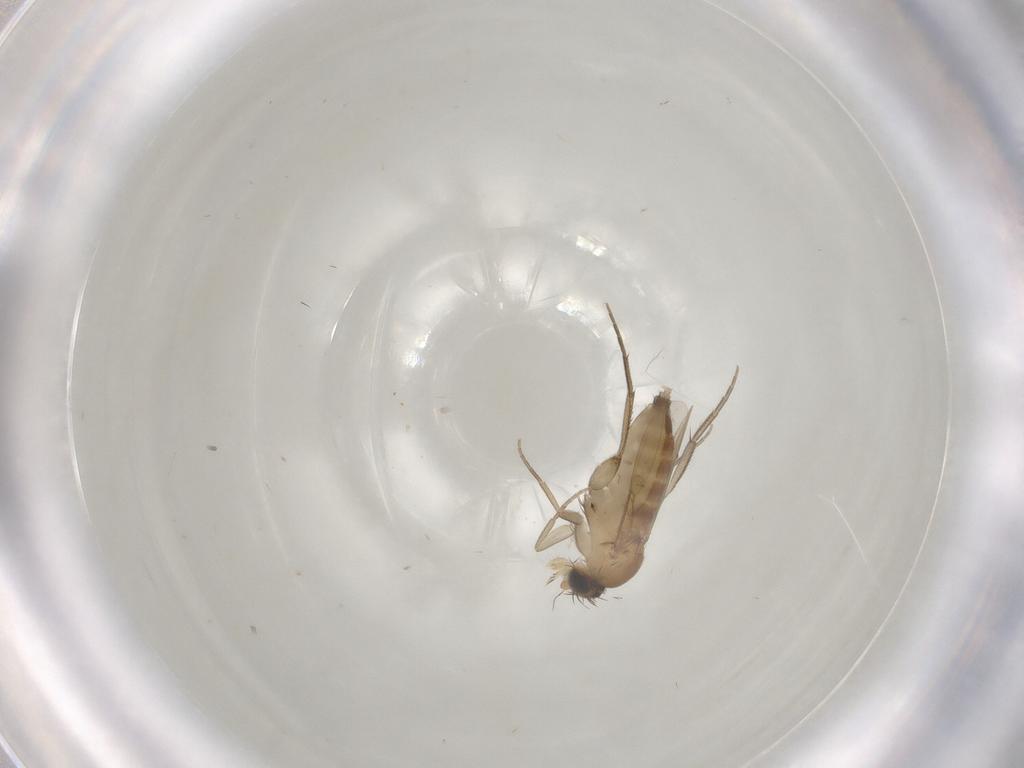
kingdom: Animalia
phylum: Arthropoda
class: Insecta
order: Diptera
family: Phoridae
